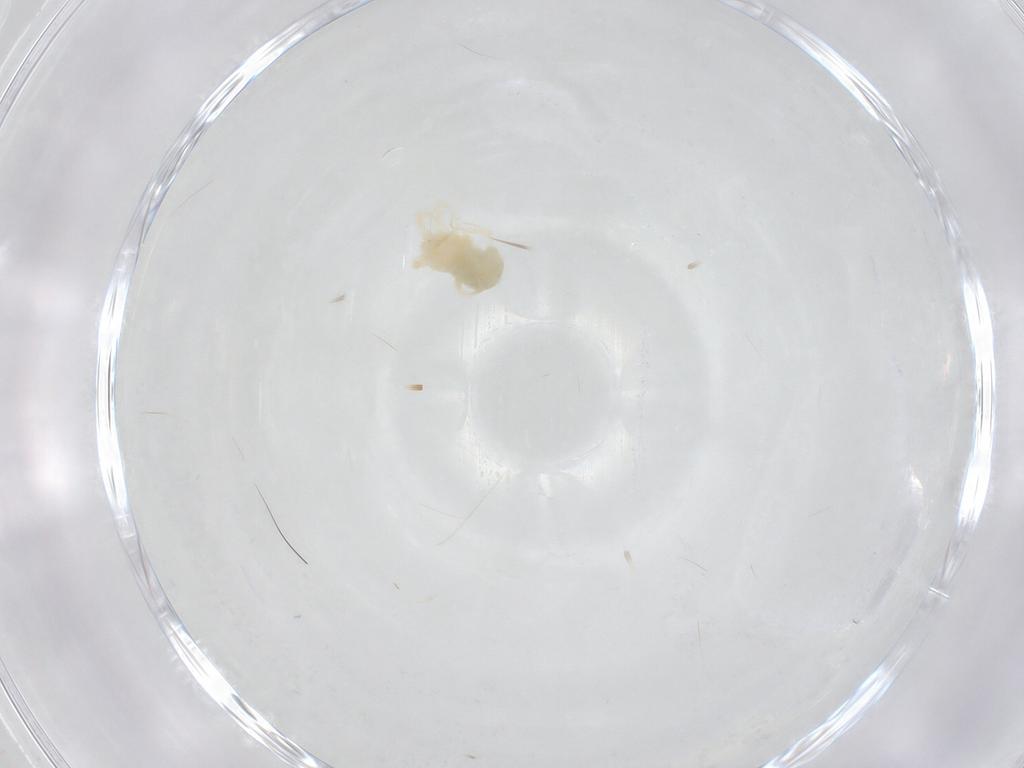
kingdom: Animalia
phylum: Arthropoda
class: Arachnida
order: Trombidiformes
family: Anystidae
